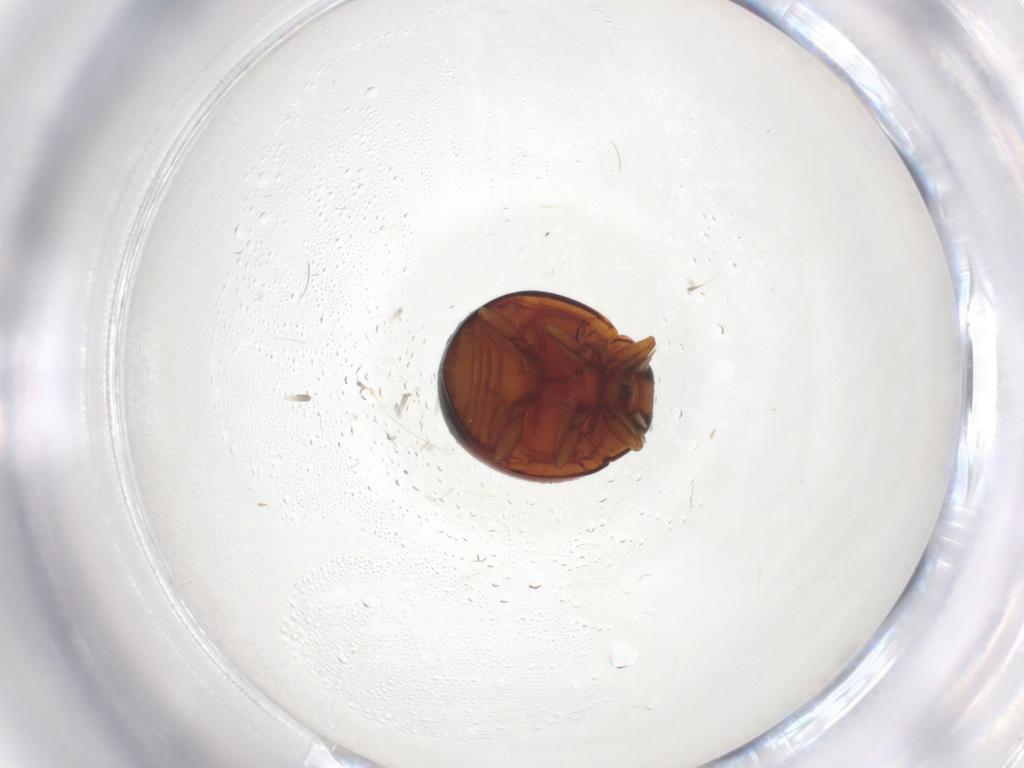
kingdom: Animalia
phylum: Arthropoda
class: Insecta
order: Coleoptera
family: Coccinellidae
